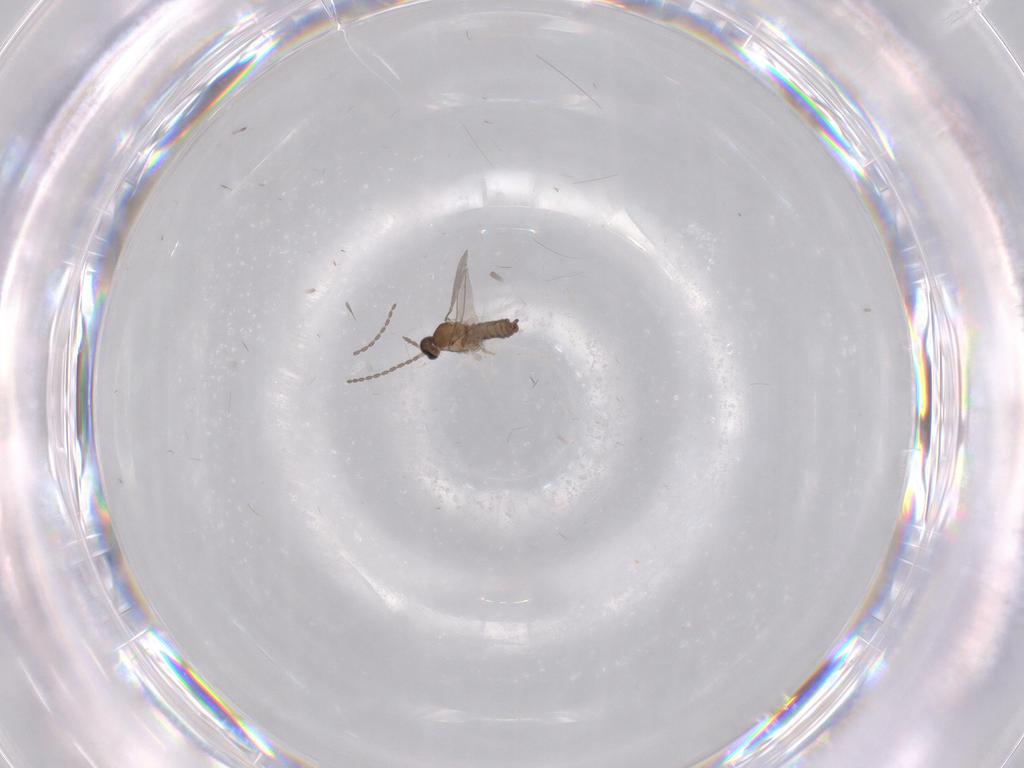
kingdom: Animalia
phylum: Arthropoda
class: Insecta
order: Diptera
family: Cecidomyiidae
